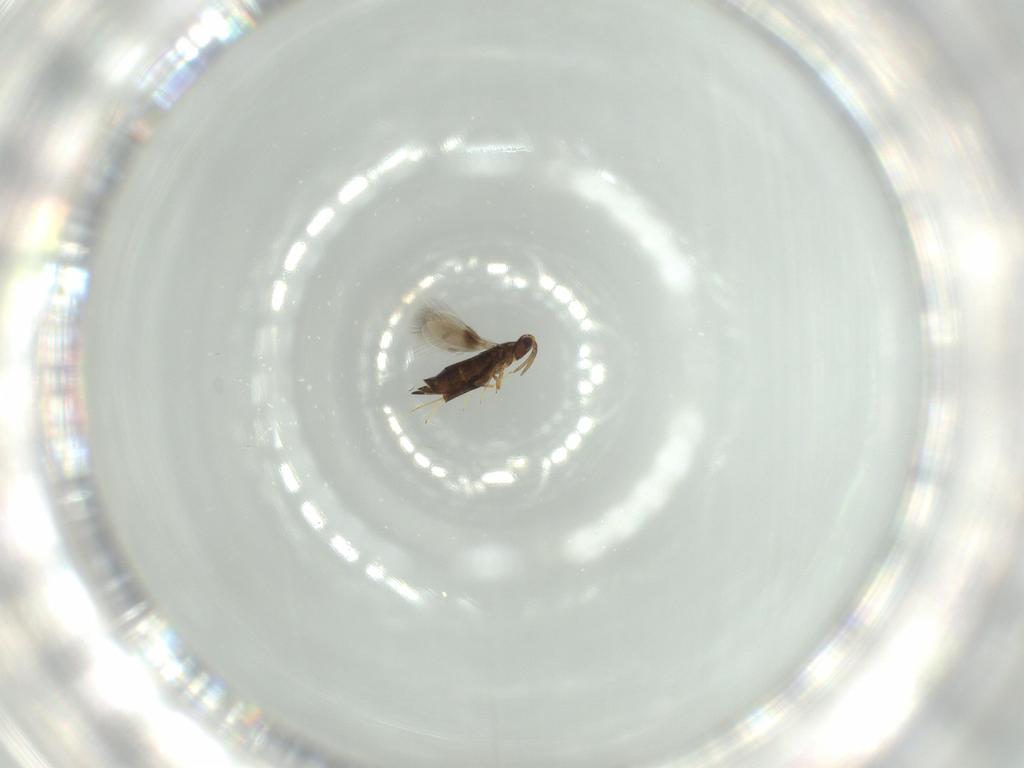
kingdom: Animalia
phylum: Arthropoda
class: Insecta
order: Hymenoptera
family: Signiphoridae
